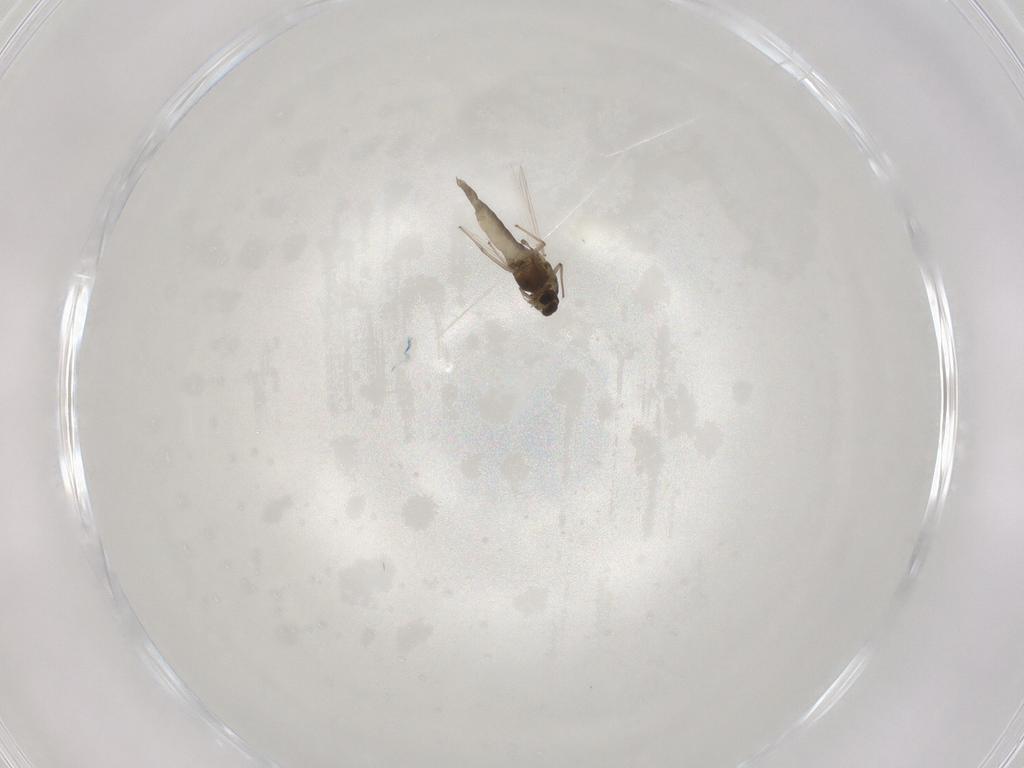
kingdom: Animalia
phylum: Arthropoda
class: Insecta
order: Diptera
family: Chironomidae
